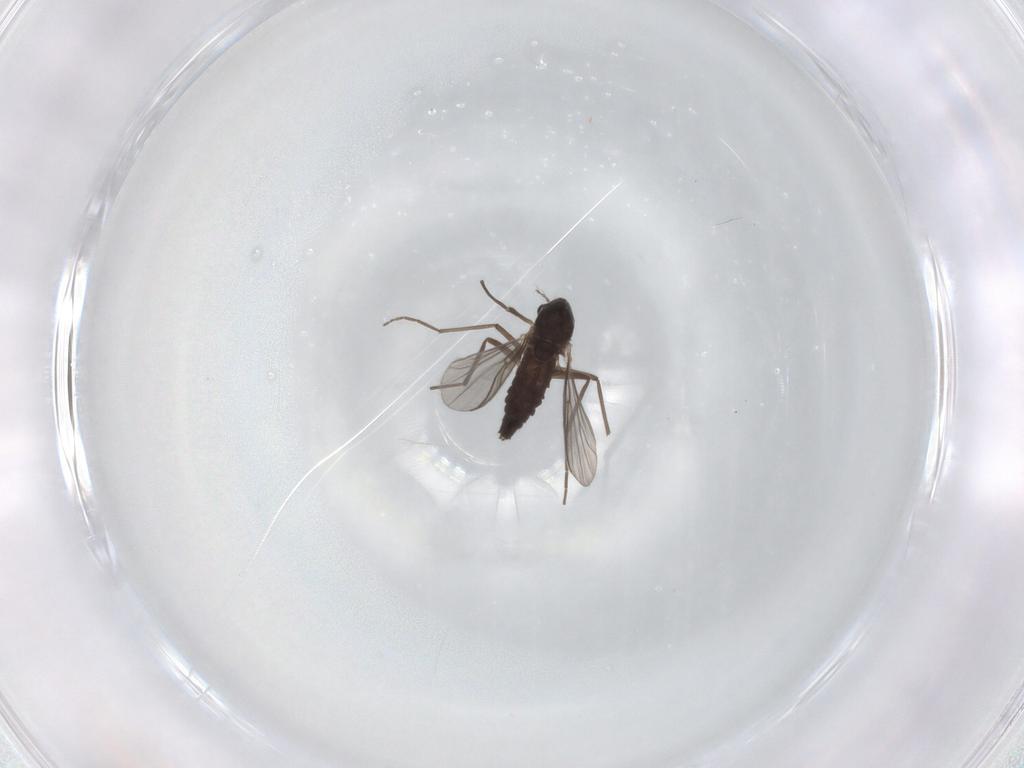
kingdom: Animalia
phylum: Arthropoda
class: Insecta
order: Diptera
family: Chironomidae
